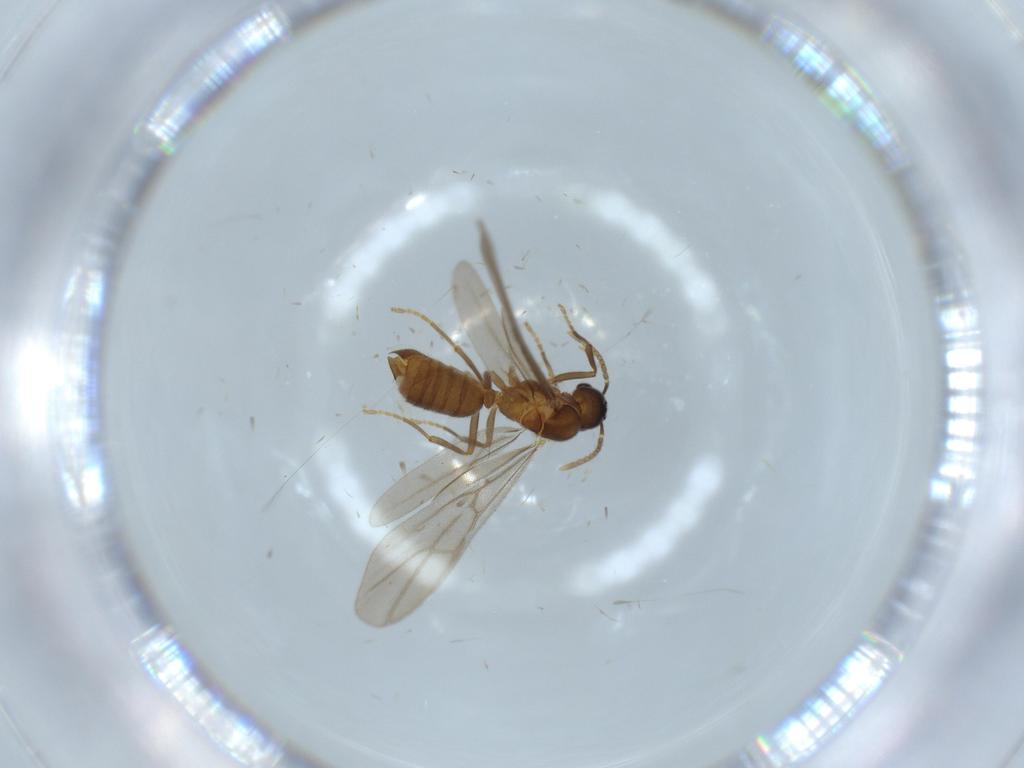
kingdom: Animalia
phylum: Arthropoda
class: Insecta
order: Hymenoptera
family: Formicidae
